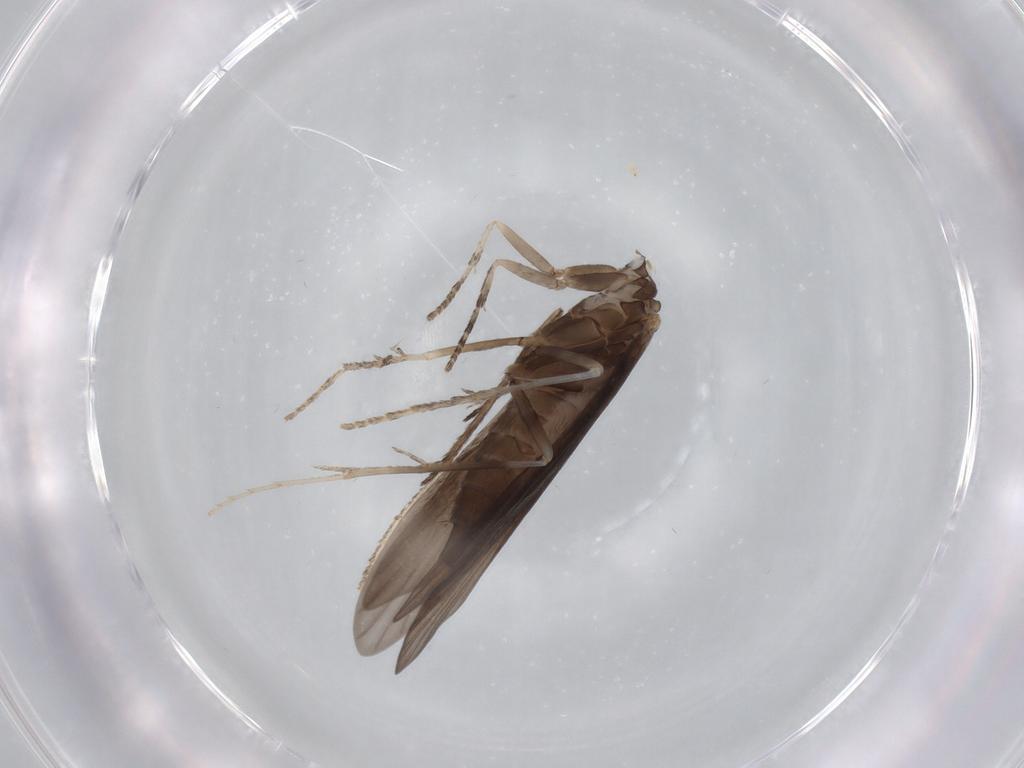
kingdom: Animalia
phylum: Arthropoda
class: Insecta
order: Trichoptera
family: Xiphocentronidae
